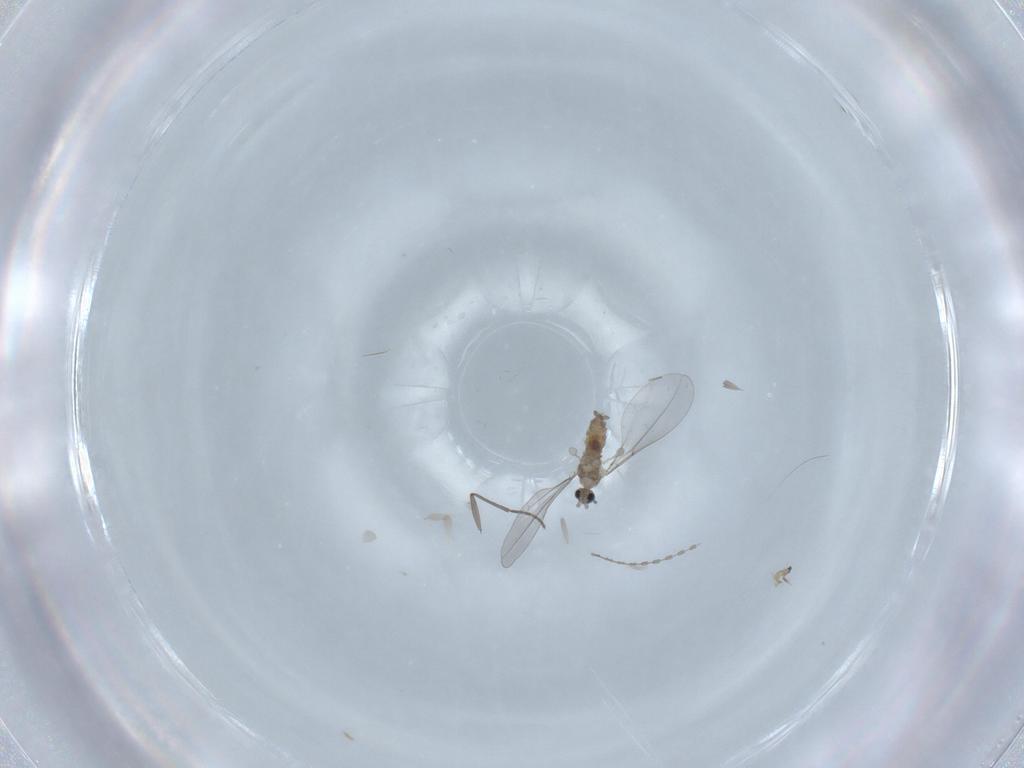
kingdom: Animalia
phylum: Arthropoda
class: Insecta
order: Diptera
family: Sciaridae
